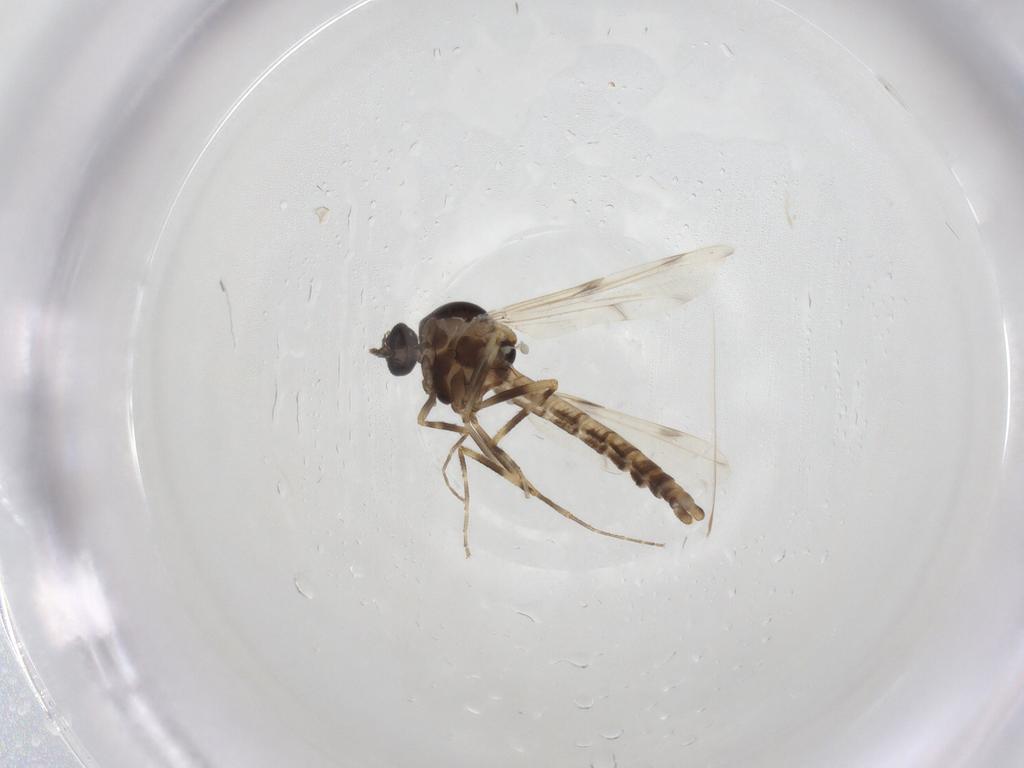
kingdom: Animalia
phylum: Arthropoda
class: Insecta
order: Diptera
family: Ceratopogonidae
